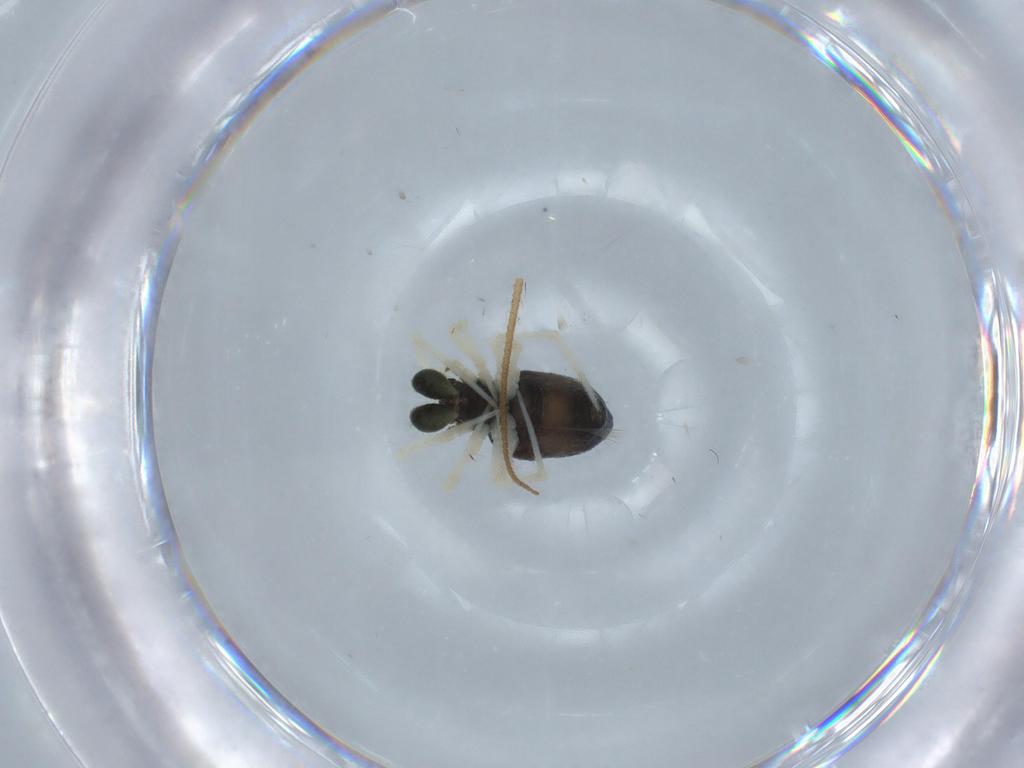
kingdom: Animalia
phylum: Arthropoda
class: Arachnida
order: Araneae
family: Theridiidae
